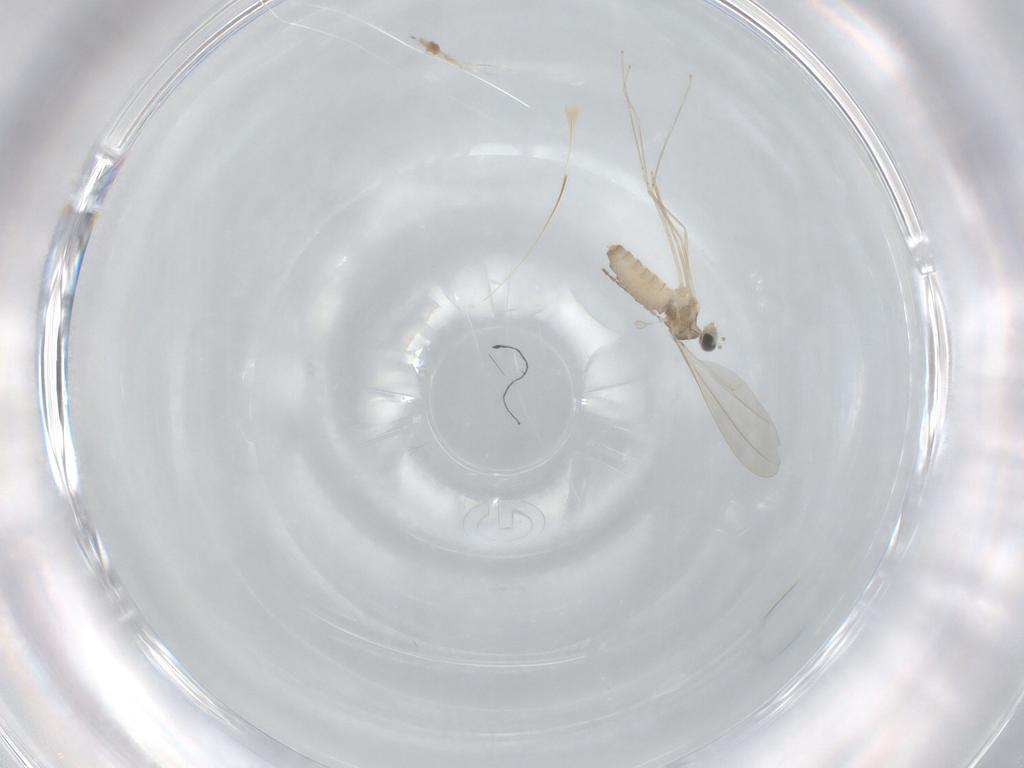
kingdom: Animalia
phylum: Arthropoda
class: Insecta
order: Diptera
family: Cecidomyiidae
